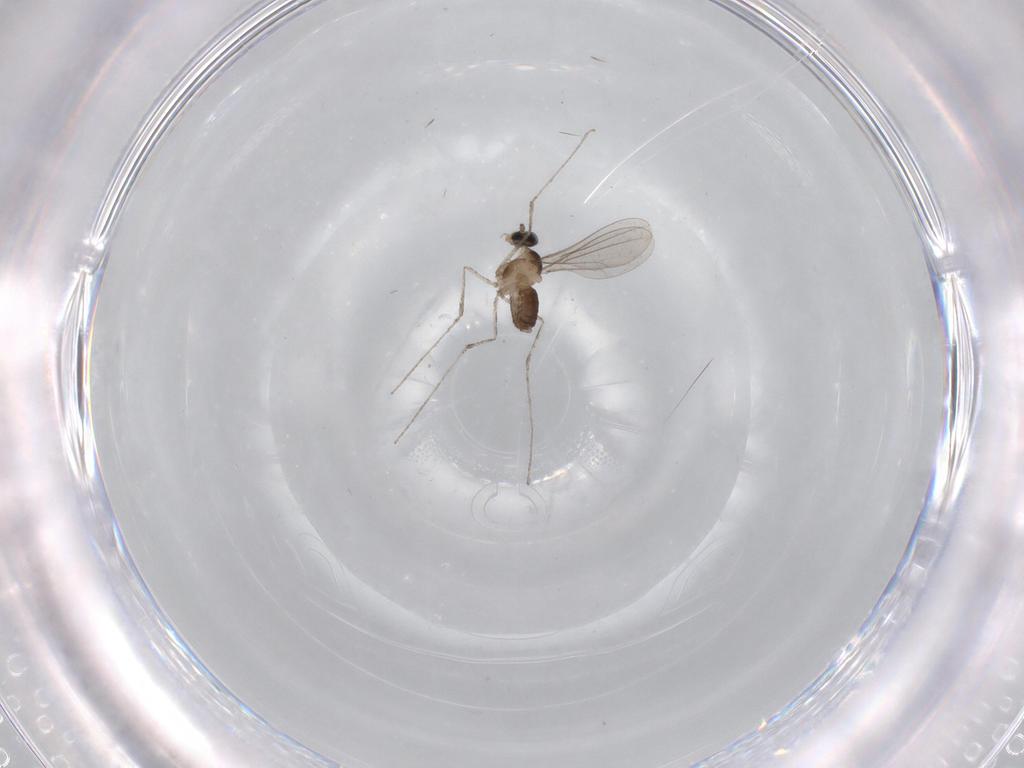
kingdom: Animalia
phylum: Arthropoda
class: Insecta
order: Diptera
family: Phoridae
